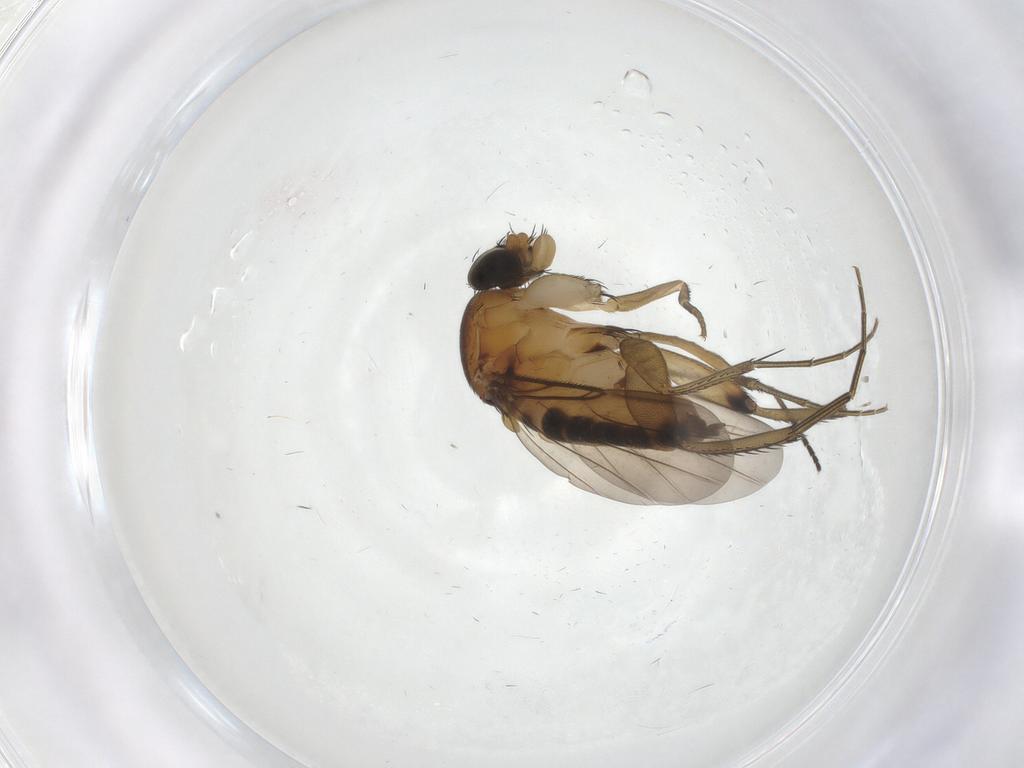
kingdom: Animalia
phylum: Arthropoda
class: Insecta
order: Diptera
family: Phoridae
